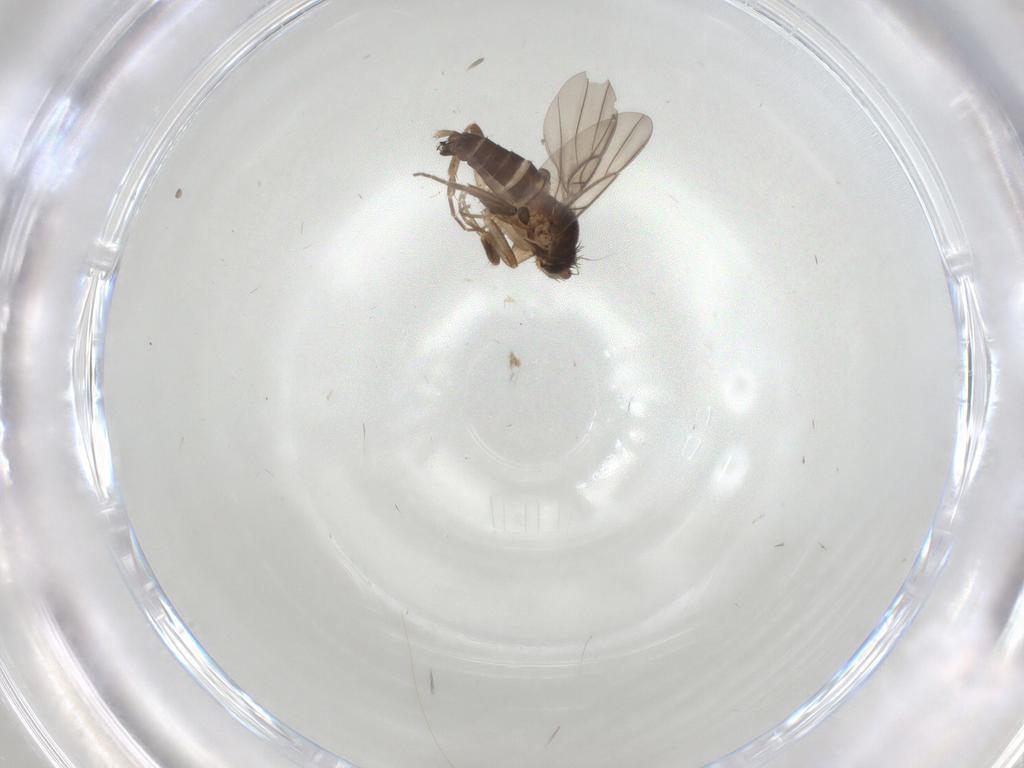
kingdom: Animalia
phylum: Arthropoda
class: Insecta
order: Diptera
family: Phoridae
